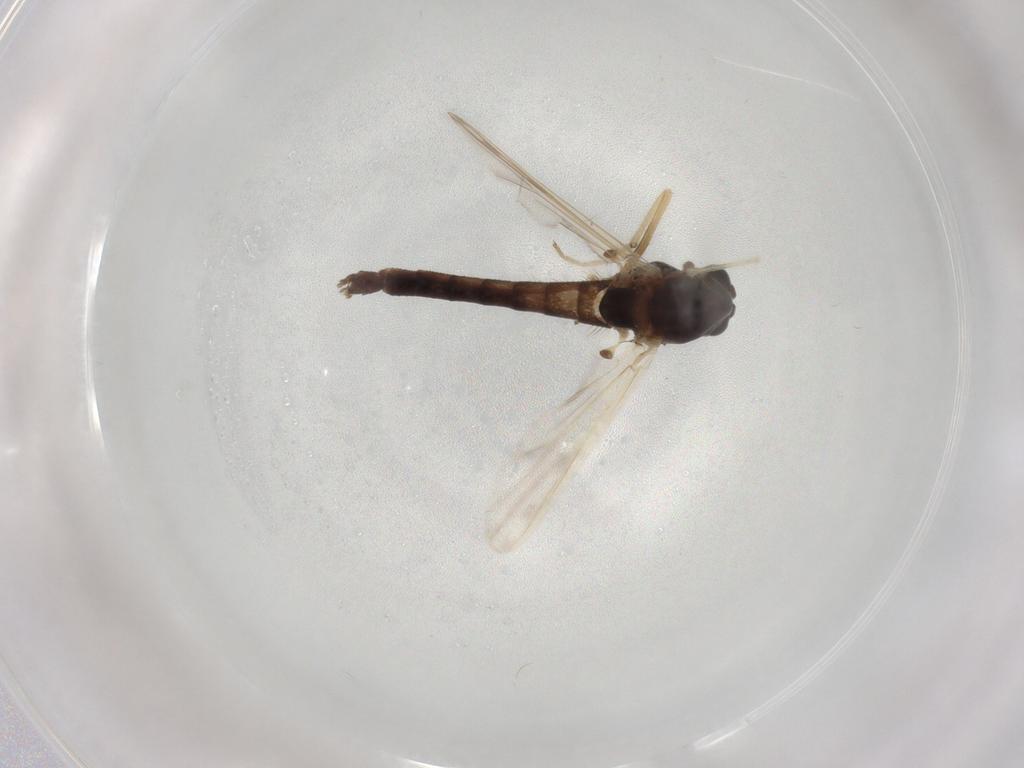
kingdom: Animalia
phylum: Arthropoda
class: Insecta
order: Diptera
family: Chironomidae
